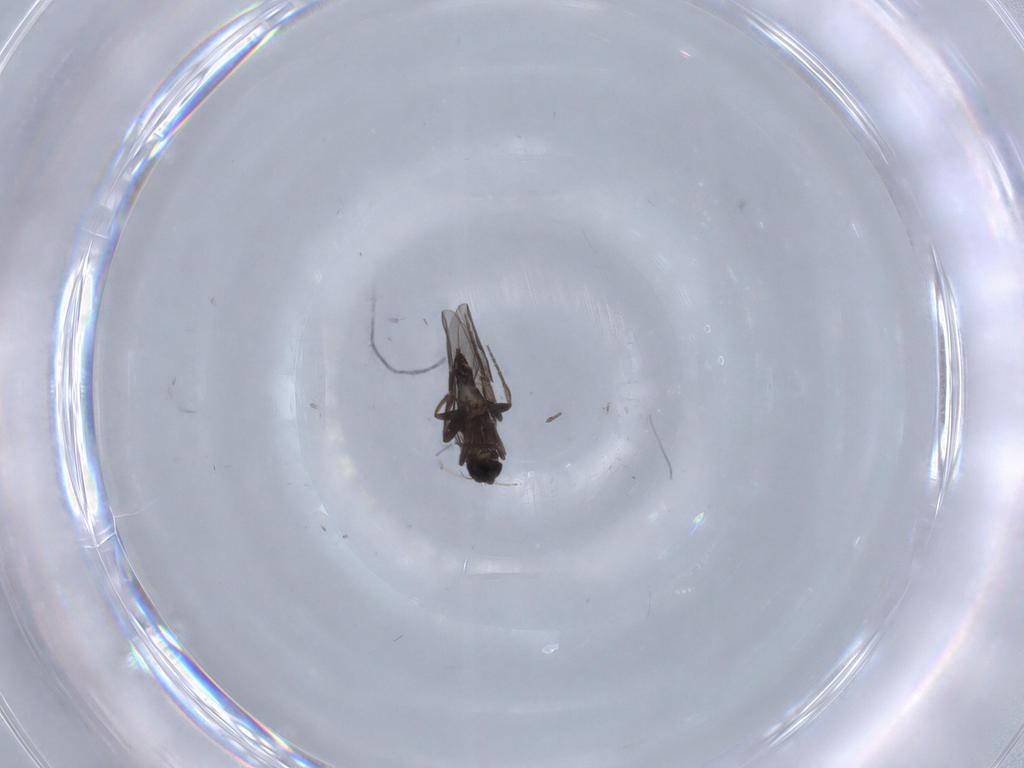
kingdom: Animalia
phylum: Arthropoda
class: Insecta
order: Diptera
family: Phoridae
